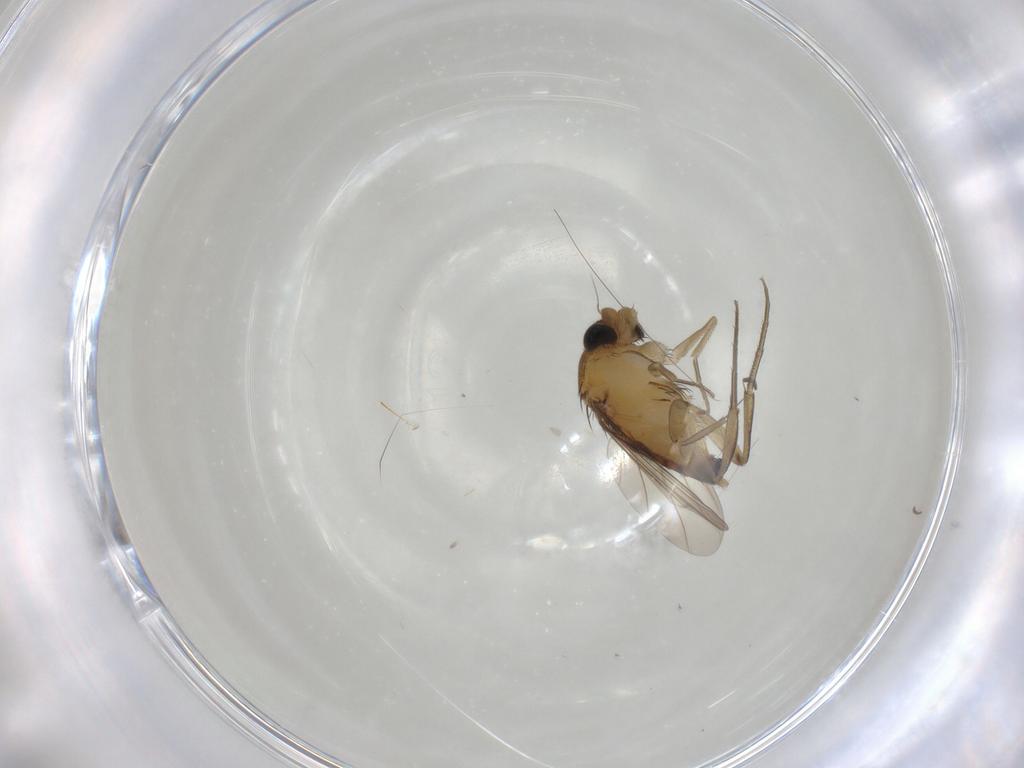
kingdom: Animalia
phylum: Arthropoda
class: Insecta
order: Diptera
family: Phoridae
